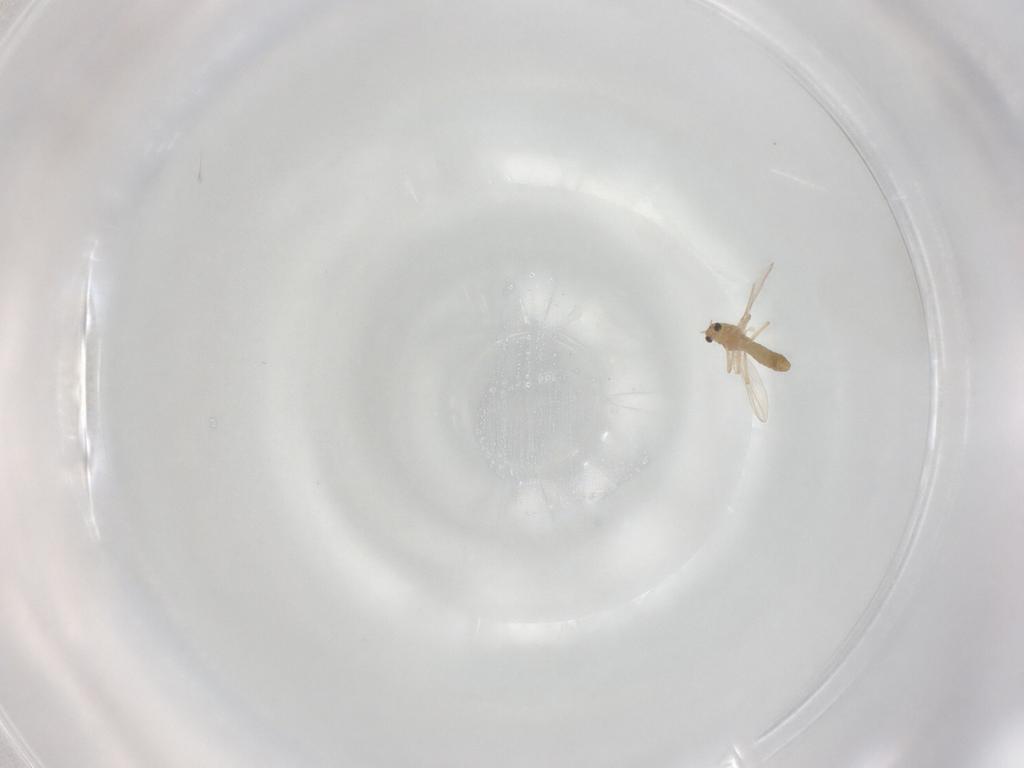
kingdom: Animalia
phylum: Arthropoda
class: Insecta
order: Diptera
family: Chironomidae
